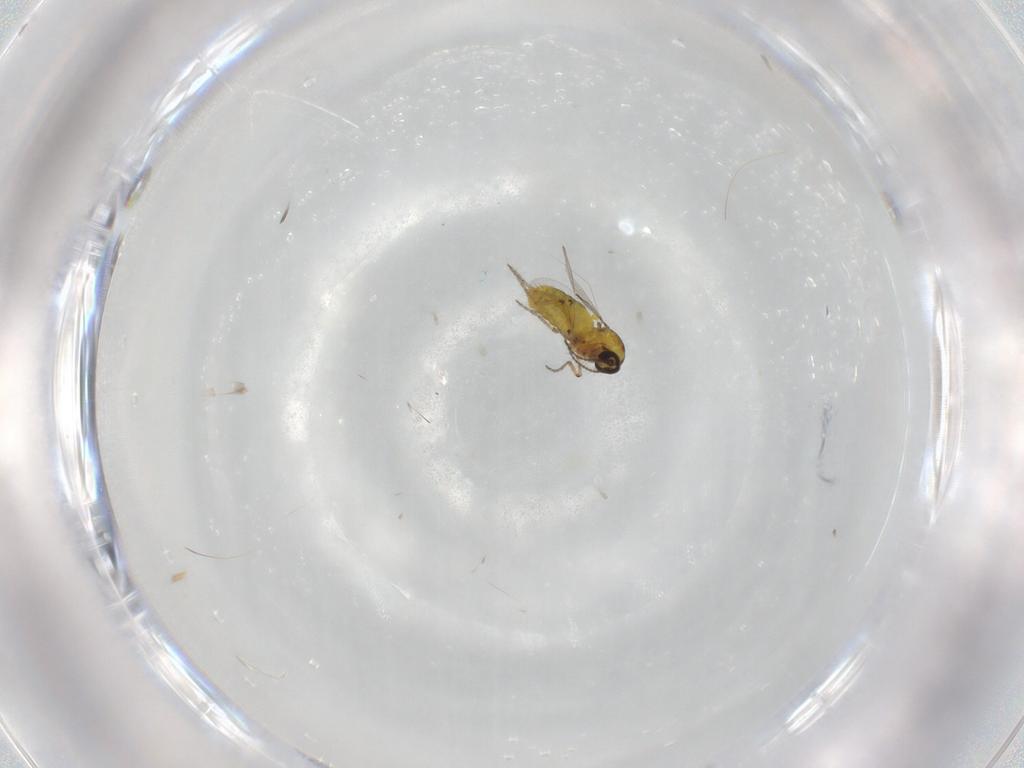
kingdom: Animalia
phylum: Arthropoda
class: Insecta
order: Diptera
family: Ceratopogonidae
